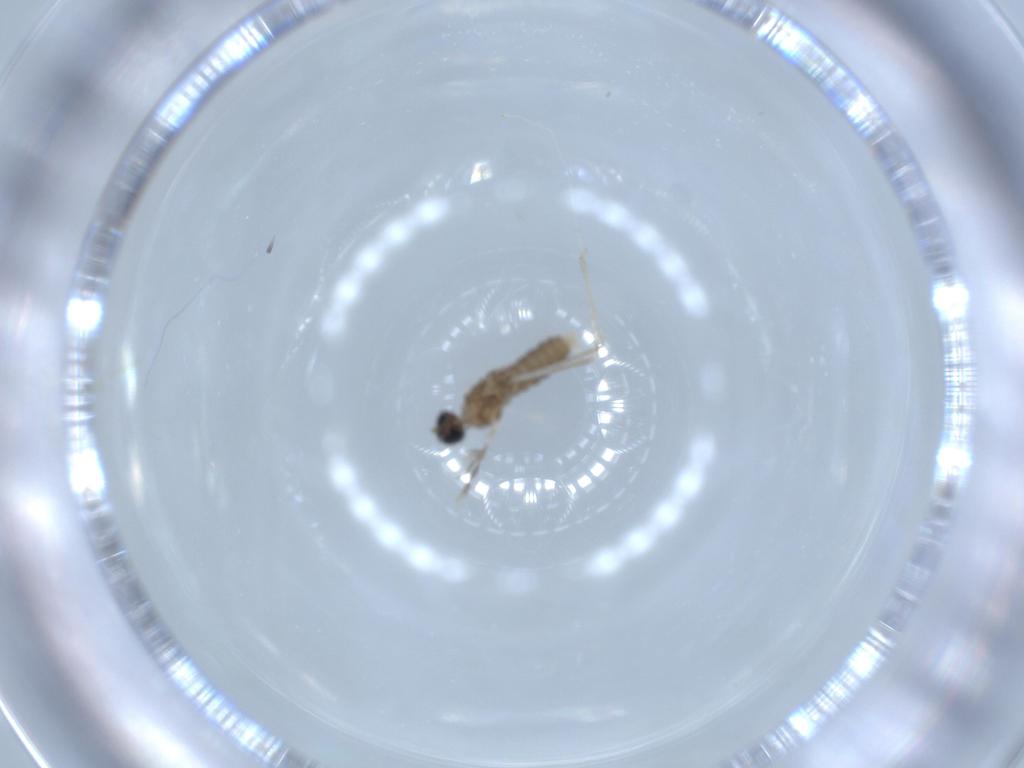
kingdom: Animalia
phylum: Arthropoda
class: Insecta
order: Diptera
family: Cecidomyiidae
